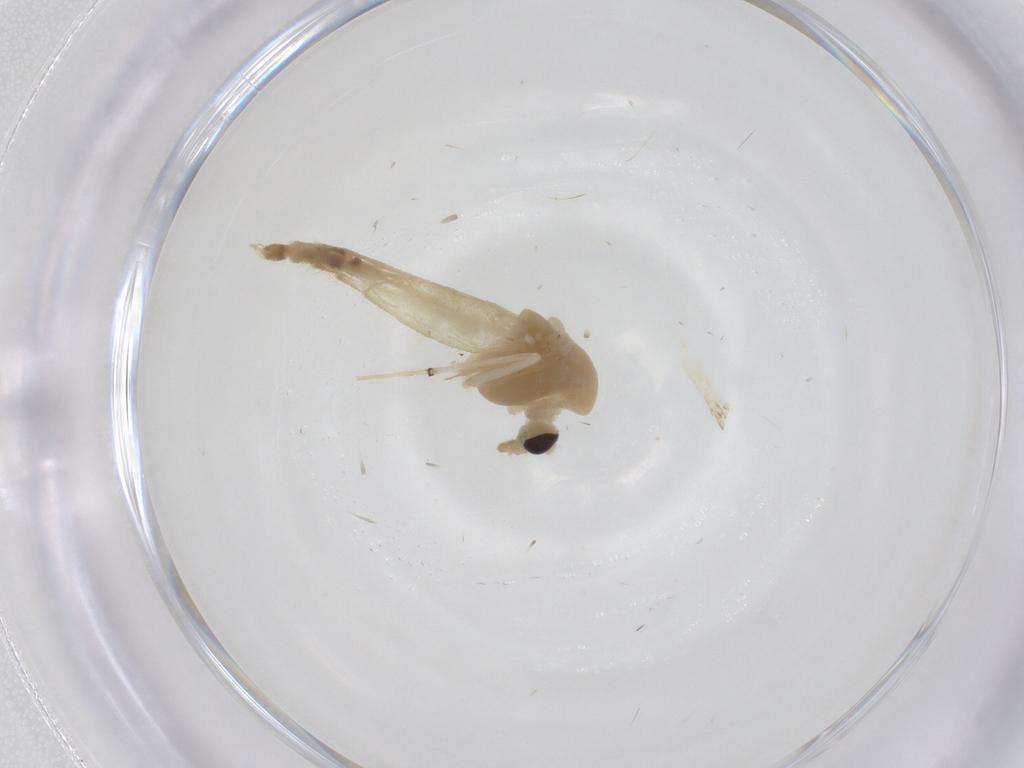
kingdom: Animalia
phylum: Arthropoda
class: Insecta
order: Diptera
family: Chironomidae
